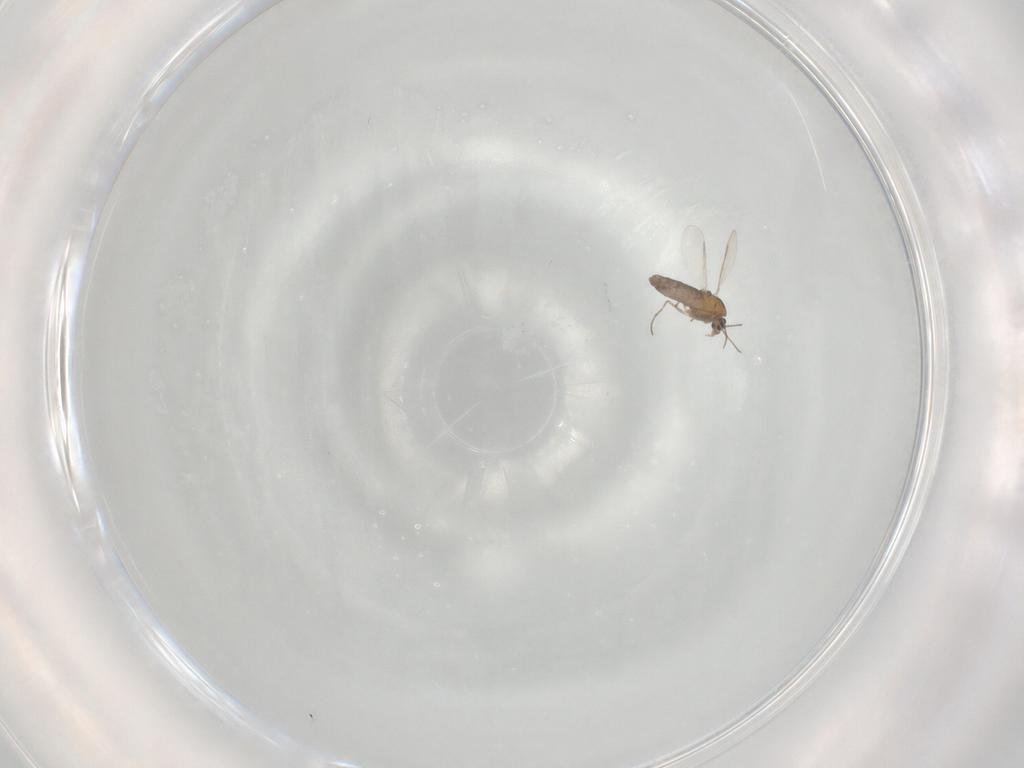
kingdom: Animalia
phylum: Arthropoda
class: Insecta
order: Diptera
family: Chironomidae
